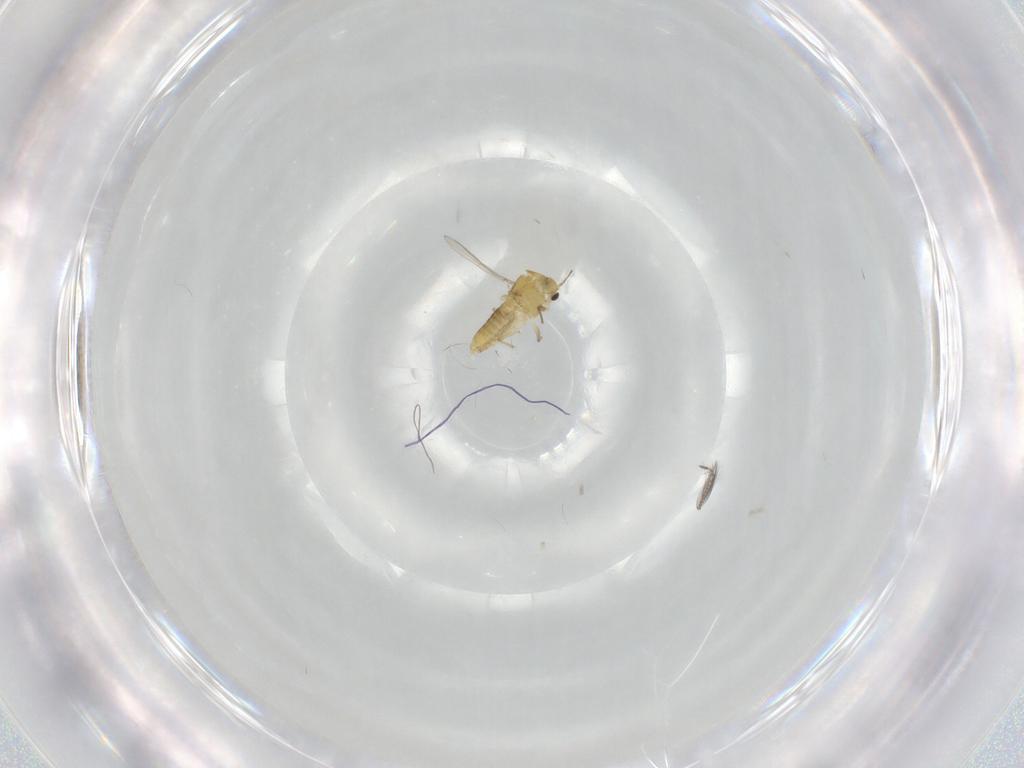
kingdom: Animalia
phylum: Arthropoda
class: Insecta
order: Diptera
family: Chironomidae
